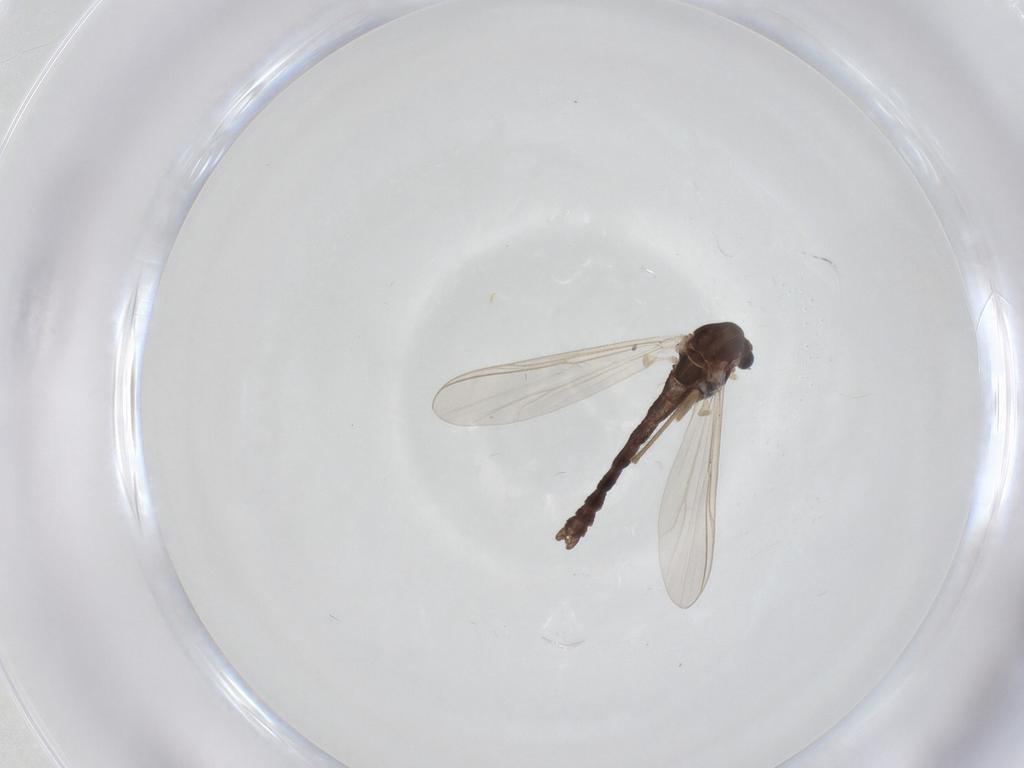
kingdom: Animalia
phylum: Arthropoda
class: Insecta
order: Diptera
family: Chironomidae
